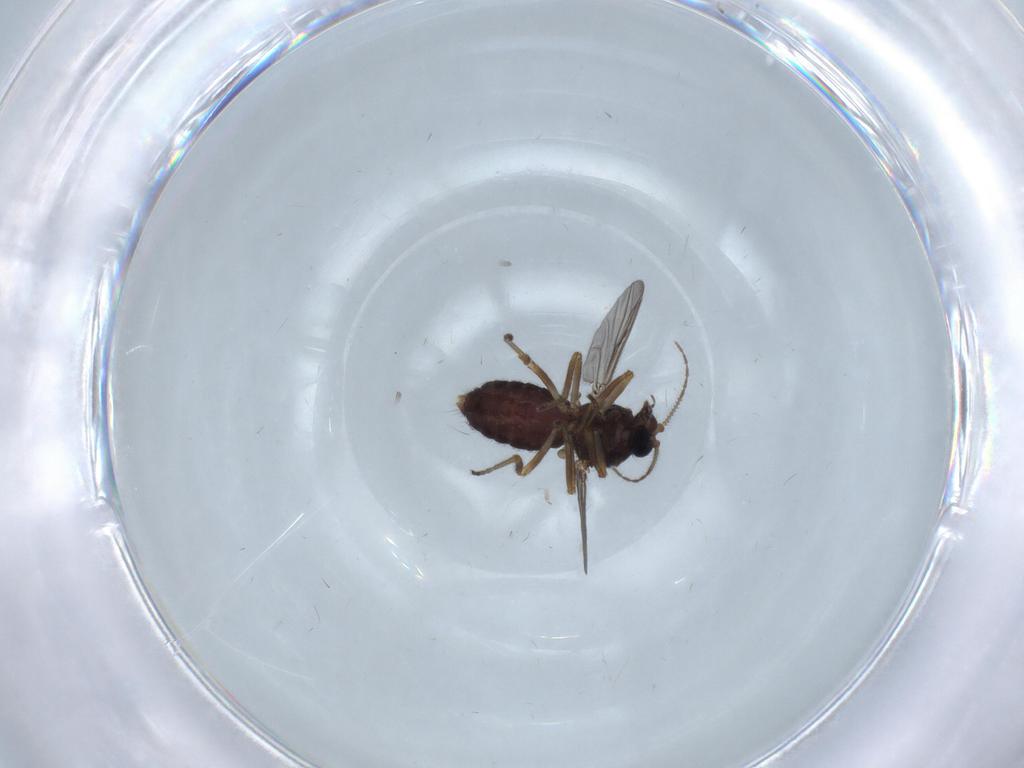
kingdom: Animalia
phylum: Arthropoda
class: Insecta
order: Diptera
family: Ceratopogonidae
